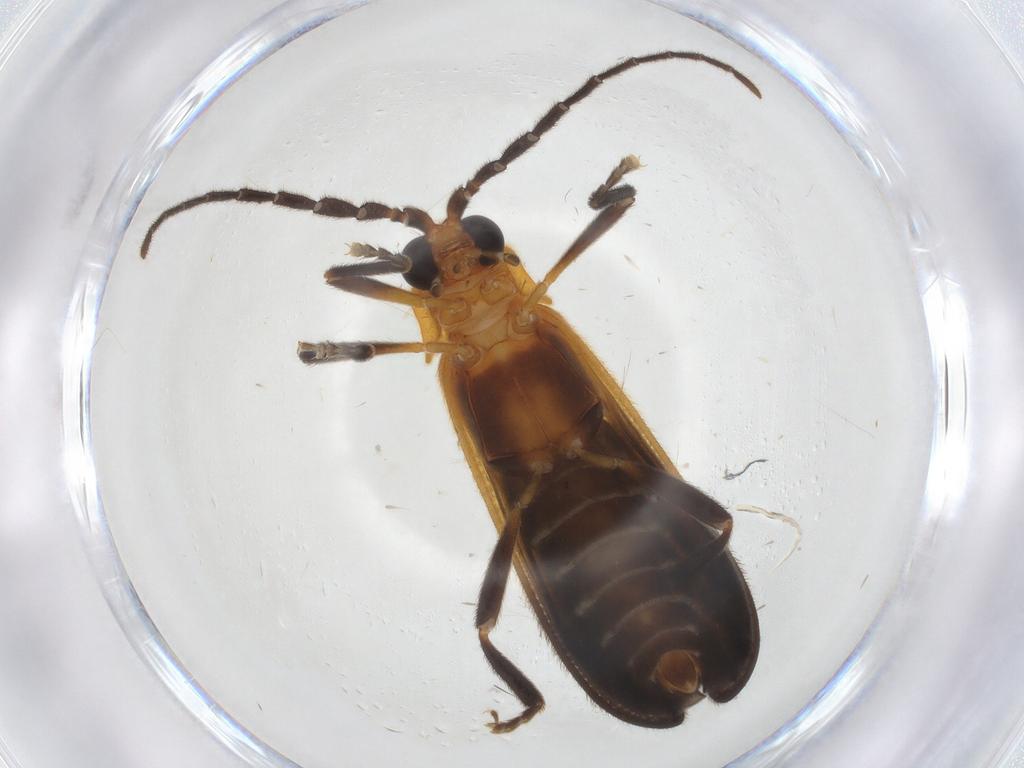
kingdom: Animalia
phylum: Arthropoda
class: Insecta
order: Coleoptera
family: Lycidae
